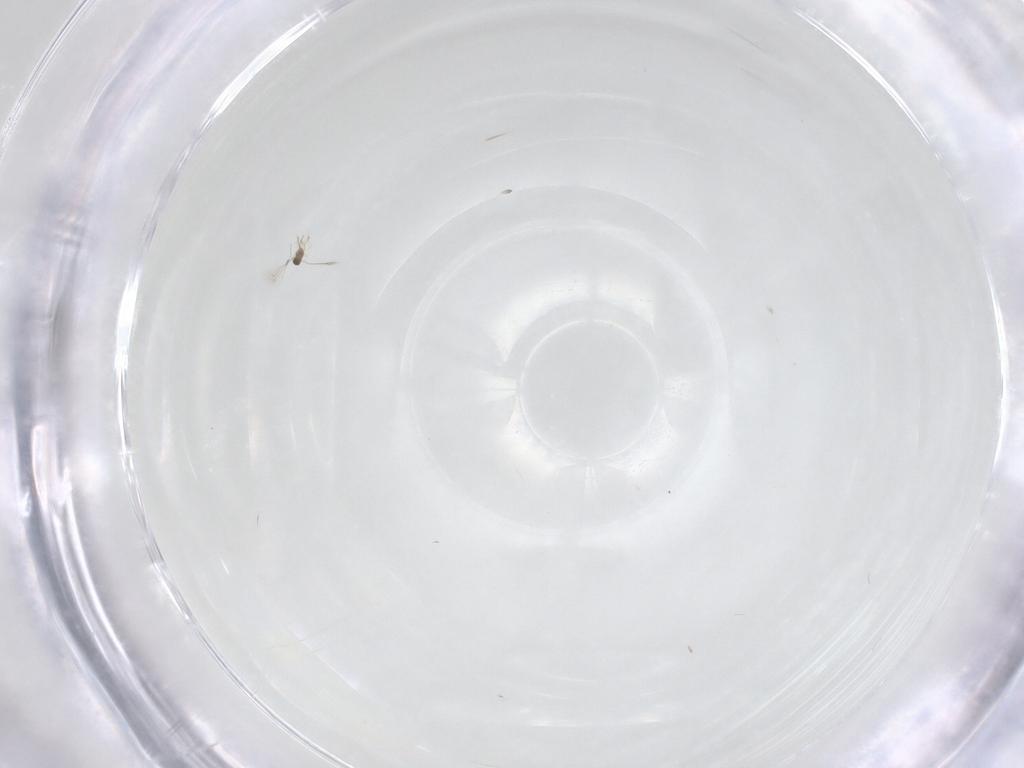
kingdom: Animalia
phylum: Arthropoda
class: Insecta
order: Hymenoptera
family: Mymaridae
